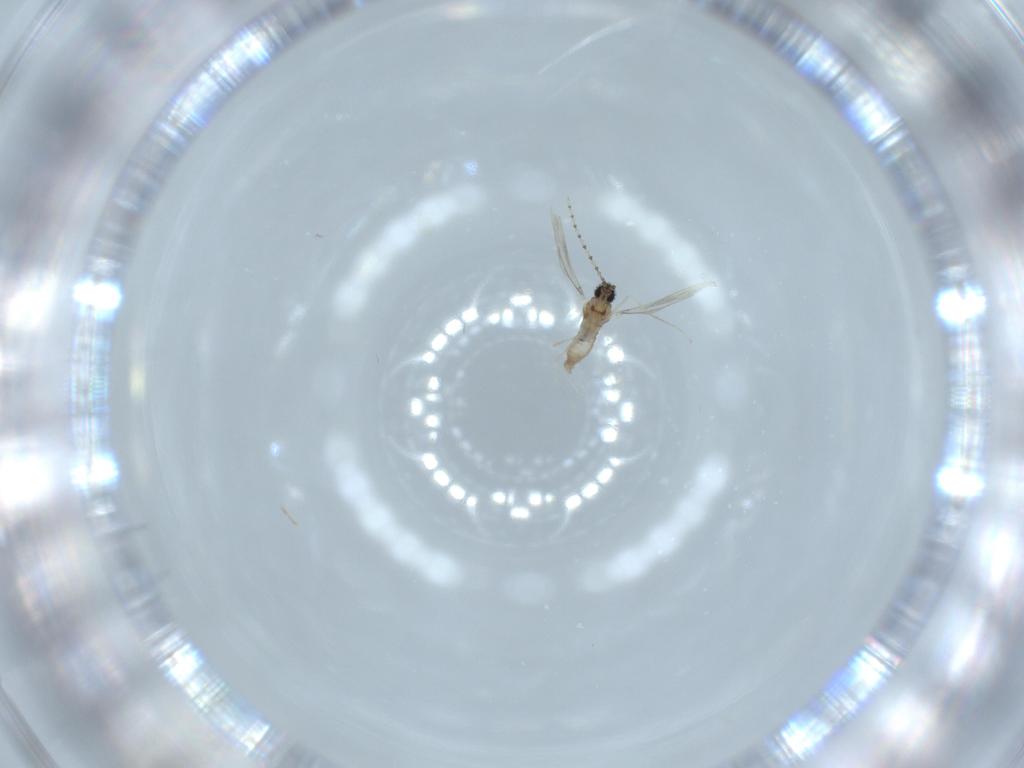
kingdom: Animalia
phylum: Arthropoda
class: Insecta
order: Diptera
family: Cecidomyiidae
